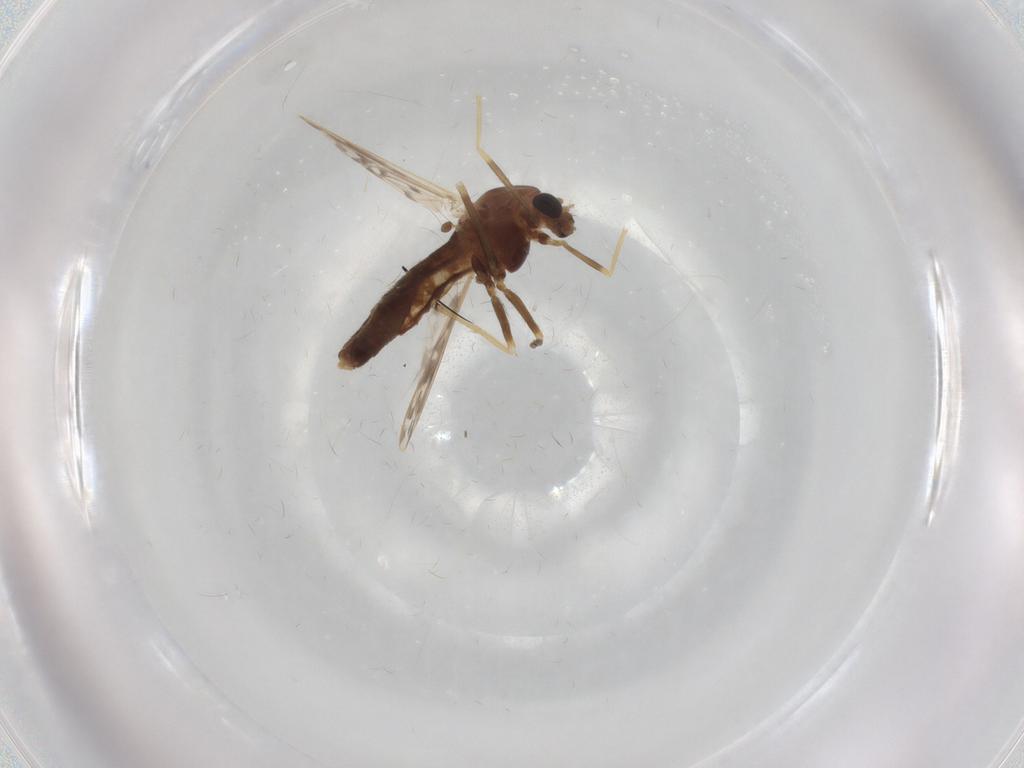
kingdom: Animalia
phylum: Arthropoda
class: Insecta
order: Diptera
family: Chironomidae
